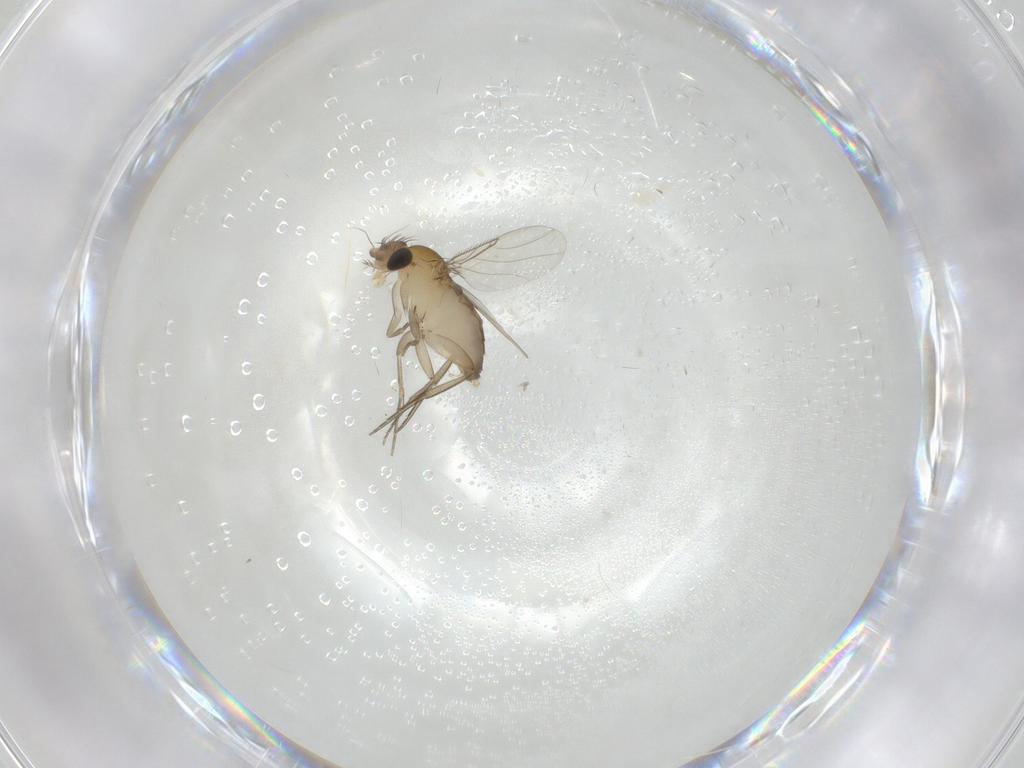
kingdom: Animalia
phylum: Arthropoda
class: Insecta
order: Diptera
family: Phoridae
